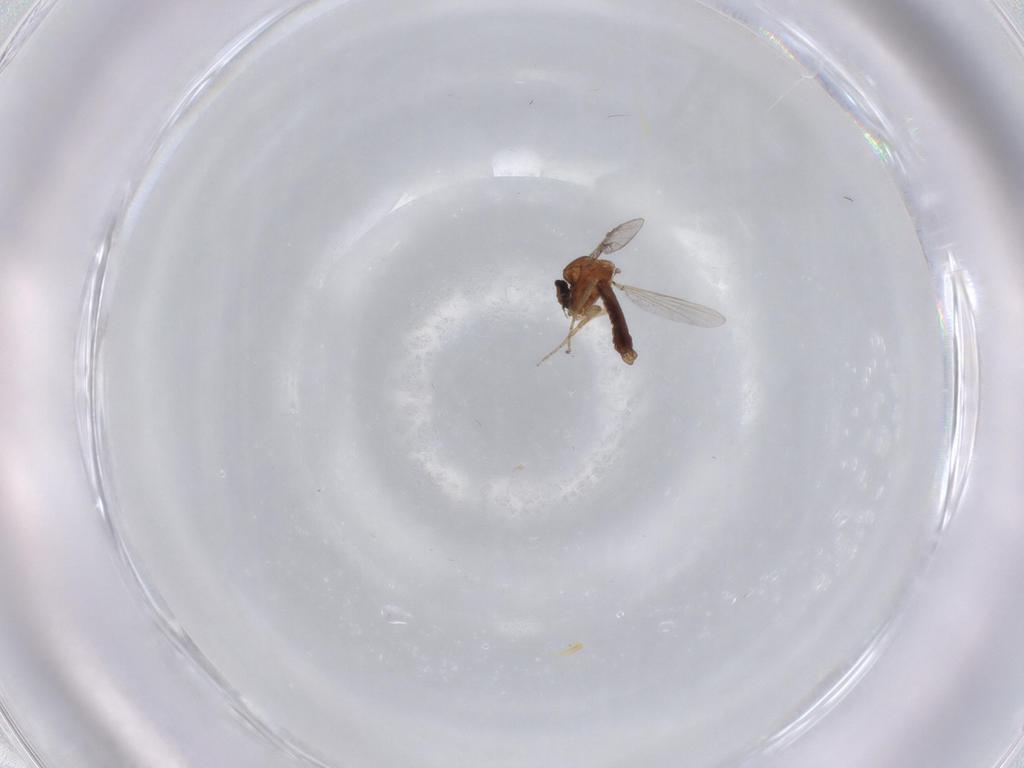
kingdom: Animalia
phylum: Arthropoda
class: Insecta
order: Diptera
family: Ceratopogonidae
